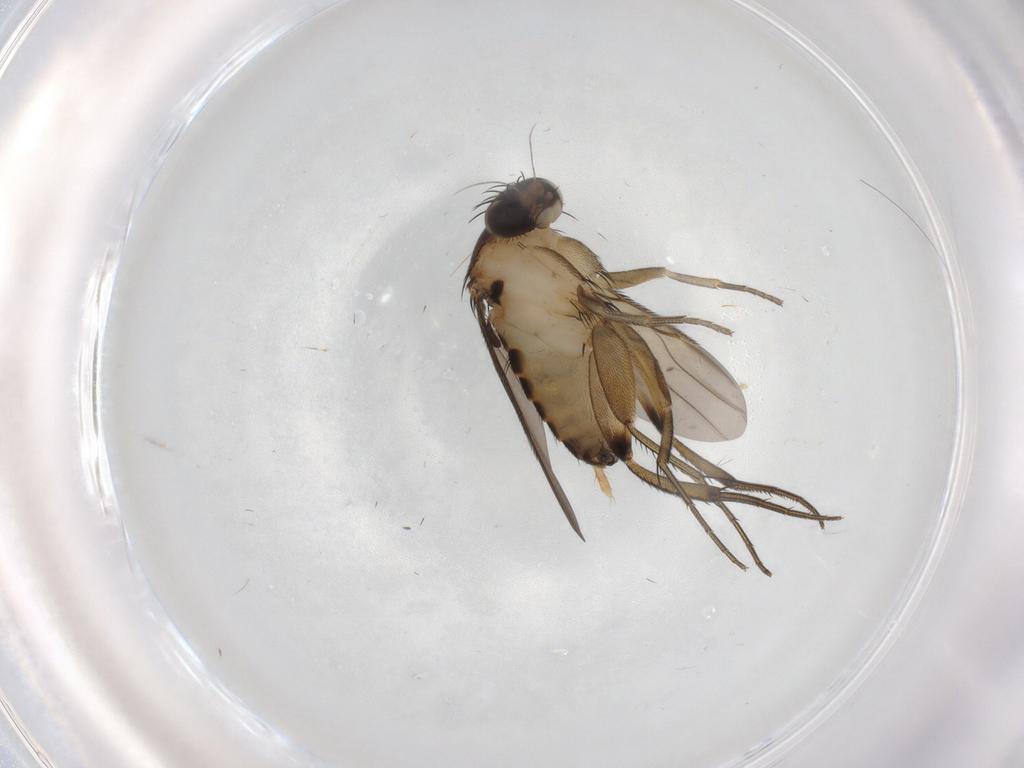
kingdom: Animalia
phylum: Arthropoda
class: Insecta
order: Diptera
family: Phoridae
